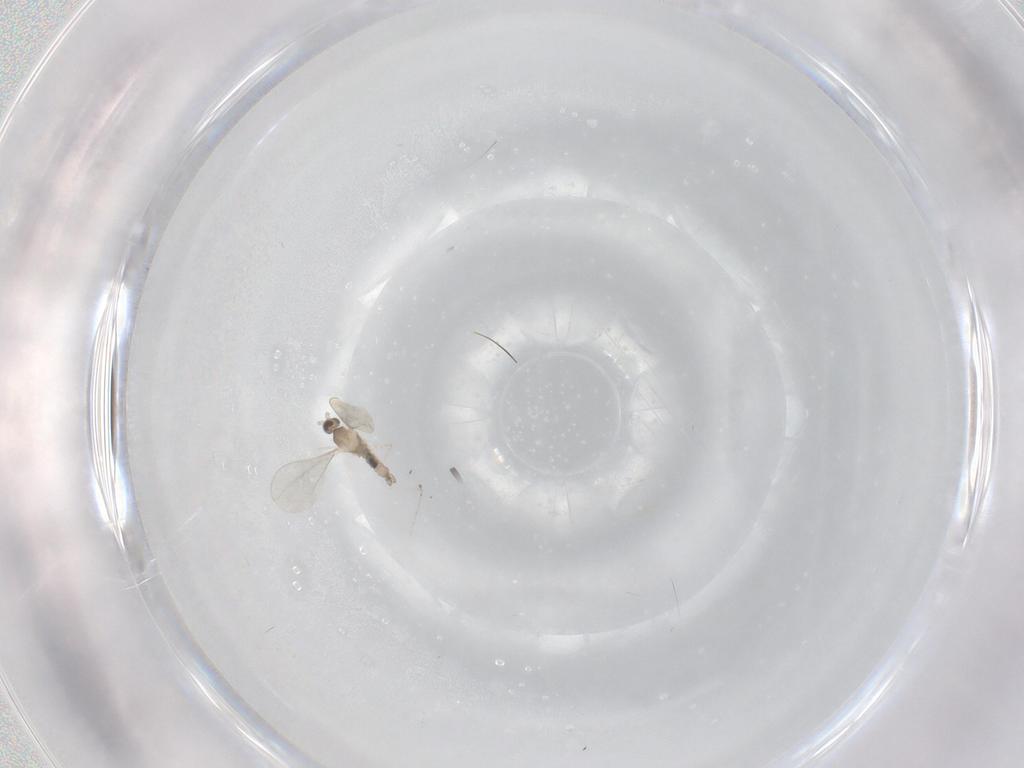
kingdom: Animalia
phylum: Arthropoda
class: Insecta
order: Diptera
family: Cecidomyiidae
